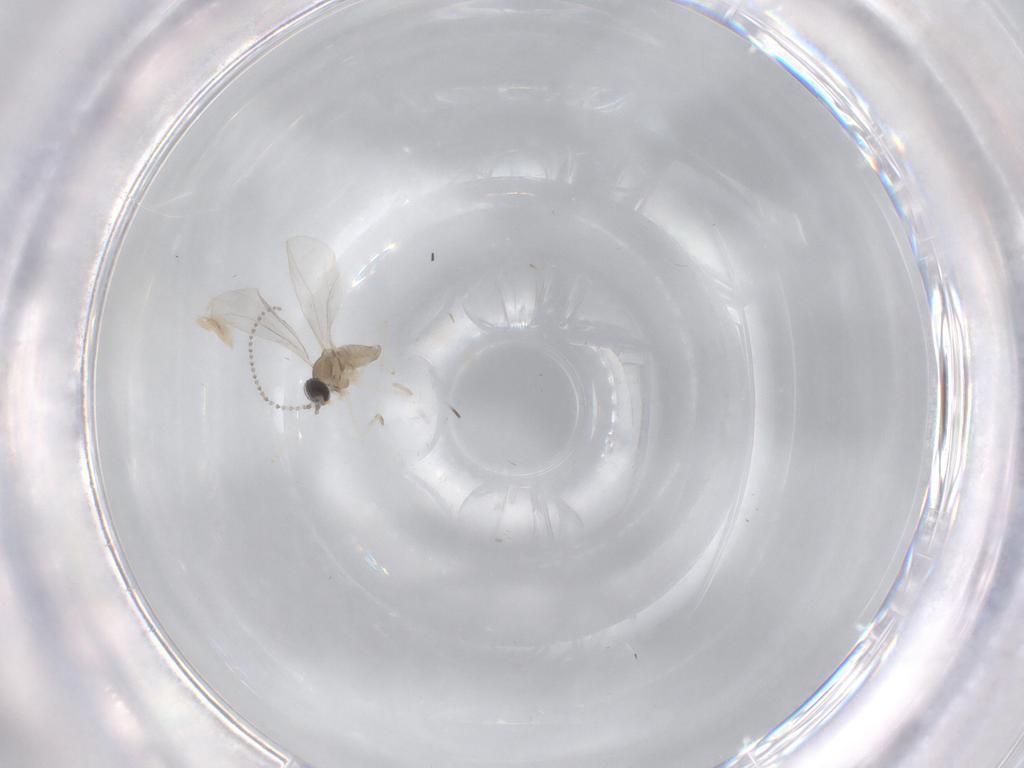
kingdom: Animalia
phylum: Arthropoda
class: Insecta
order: Diptera
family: Cecidomyiidae
